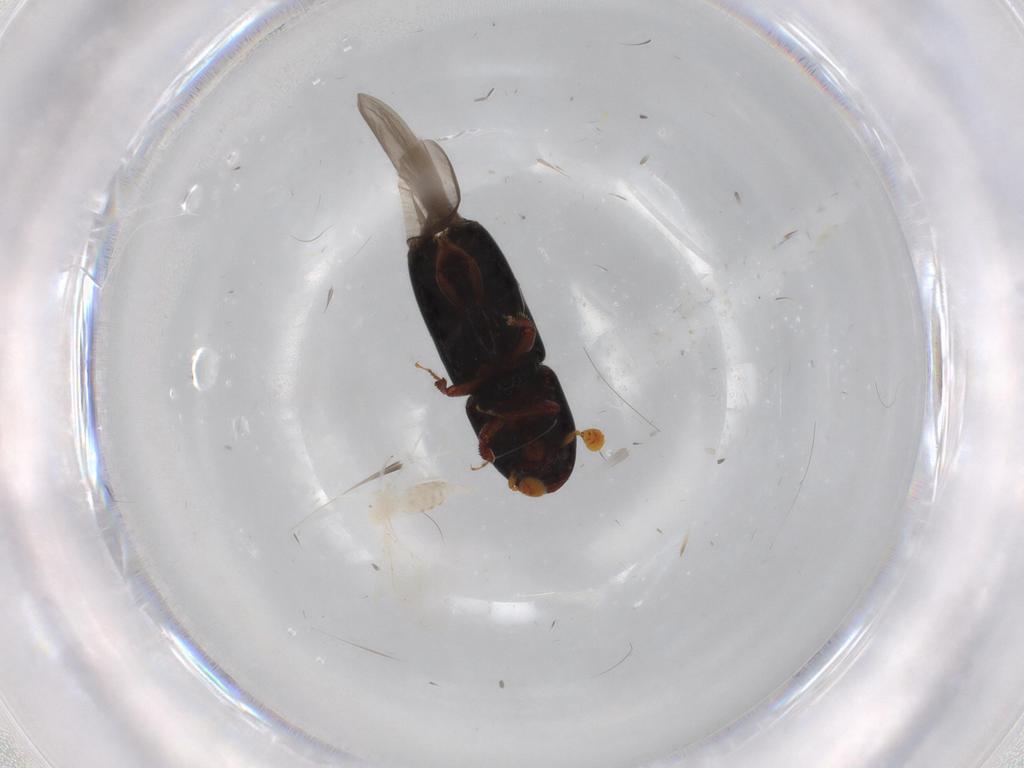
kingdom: Animalia
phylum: Arthropoda
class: Insecta
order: Coleoptera
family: Curculionidae
